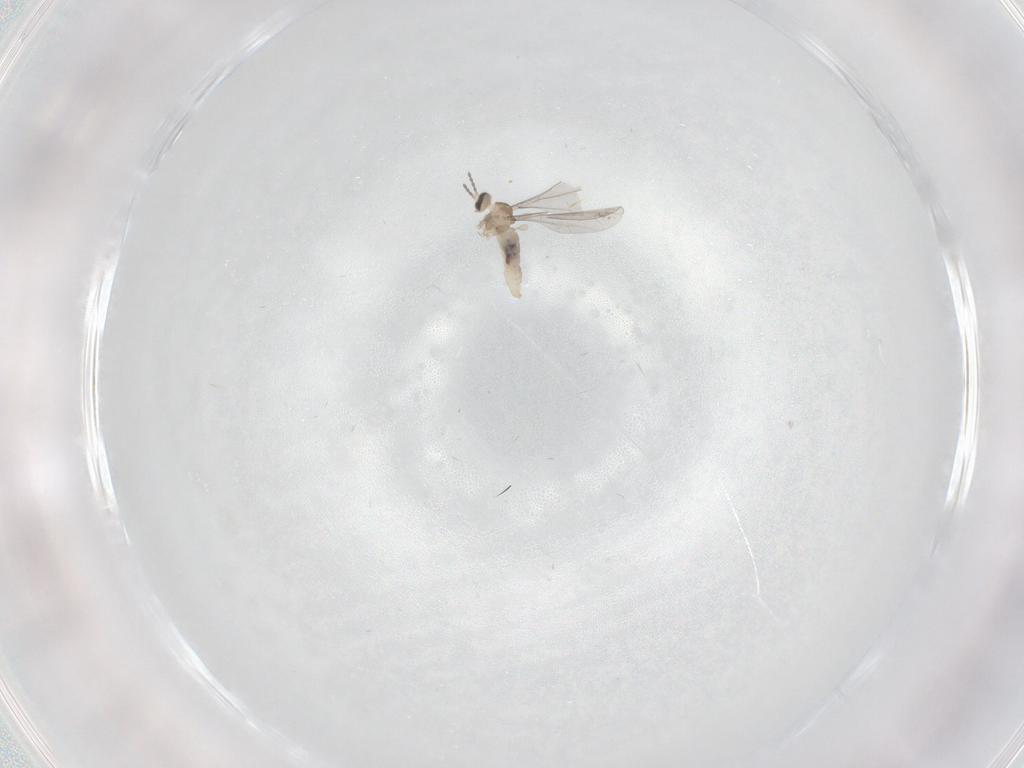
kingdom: Animalia
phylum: Arthropoda
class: Insecta
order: Diptera
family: Cecidomyiidae
